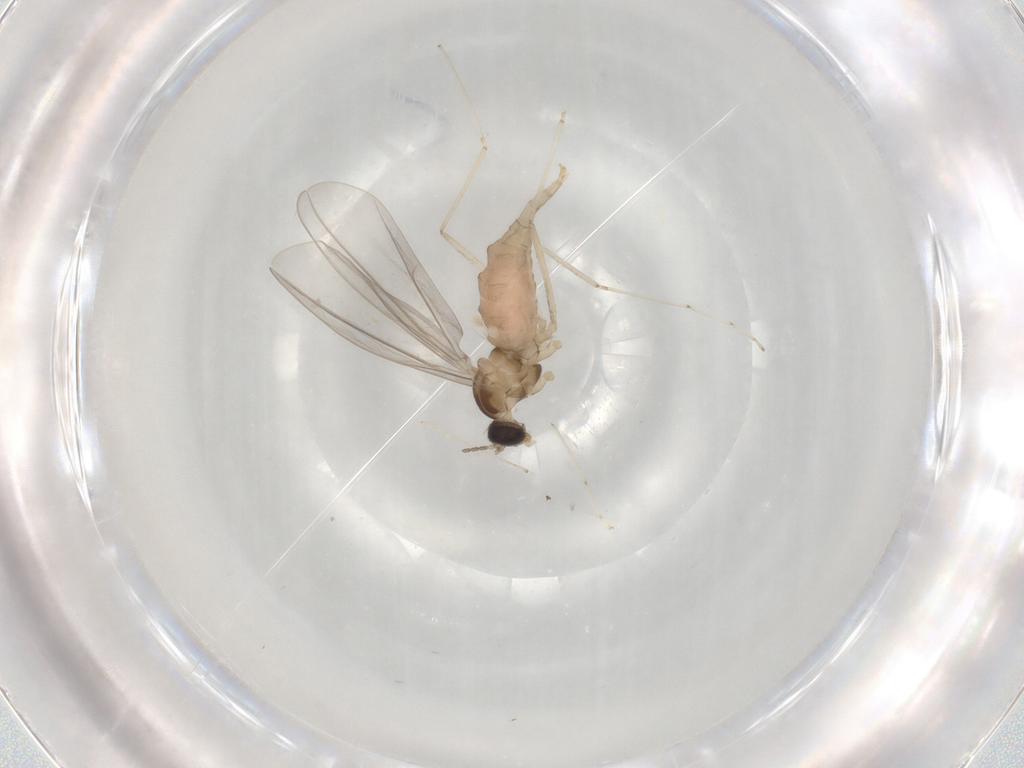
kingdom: Animalia
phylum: Arthropoda
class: Insecta
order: Diptera
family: Cecidomyiidae
